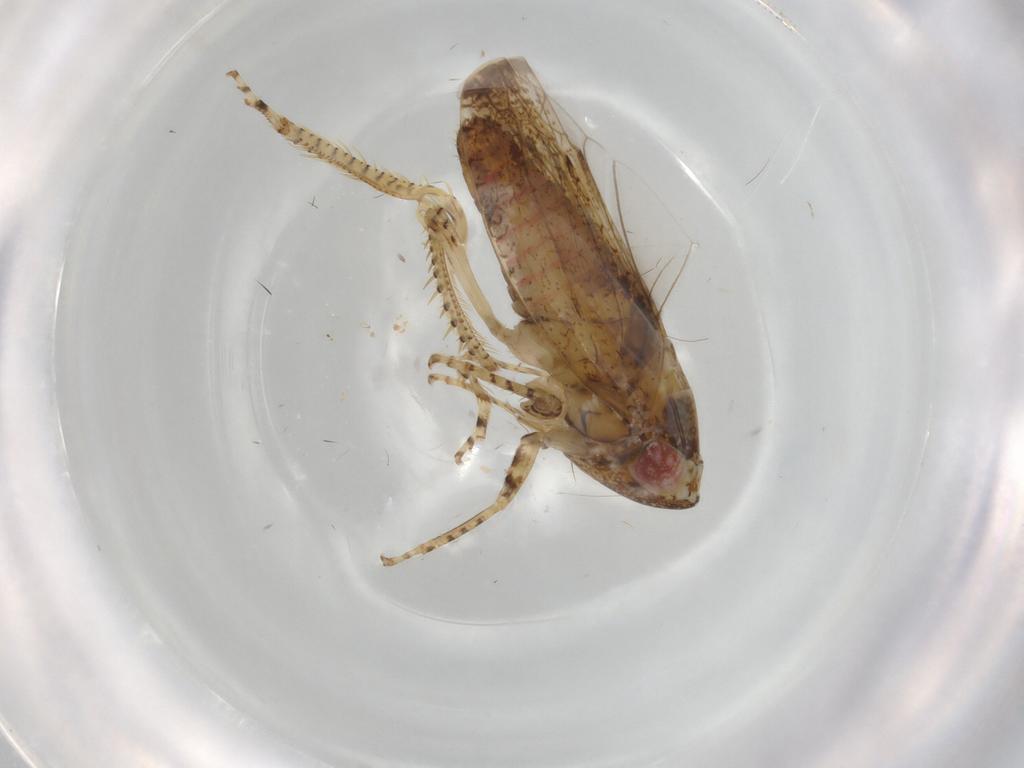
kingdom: Animalia
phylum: Arthropoda
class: Insecta
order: Hemiptera
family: Cicadellidae
